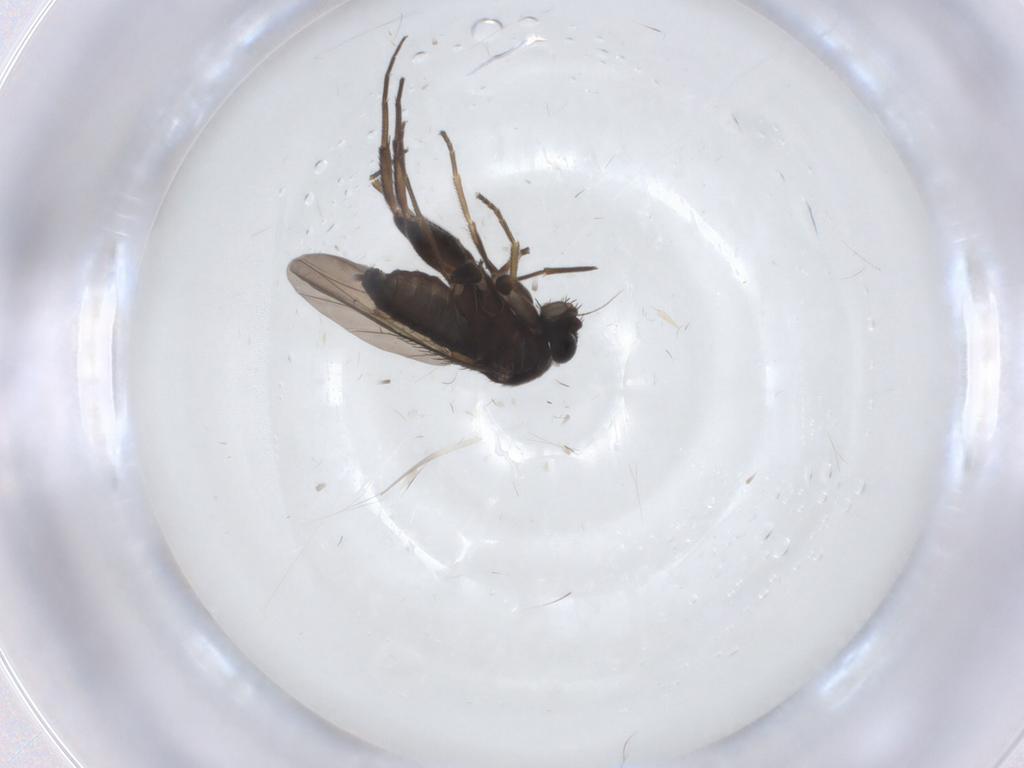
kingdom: Animalia
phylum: Arthropoda
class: Insecta
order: Diptera
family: Phoridae
